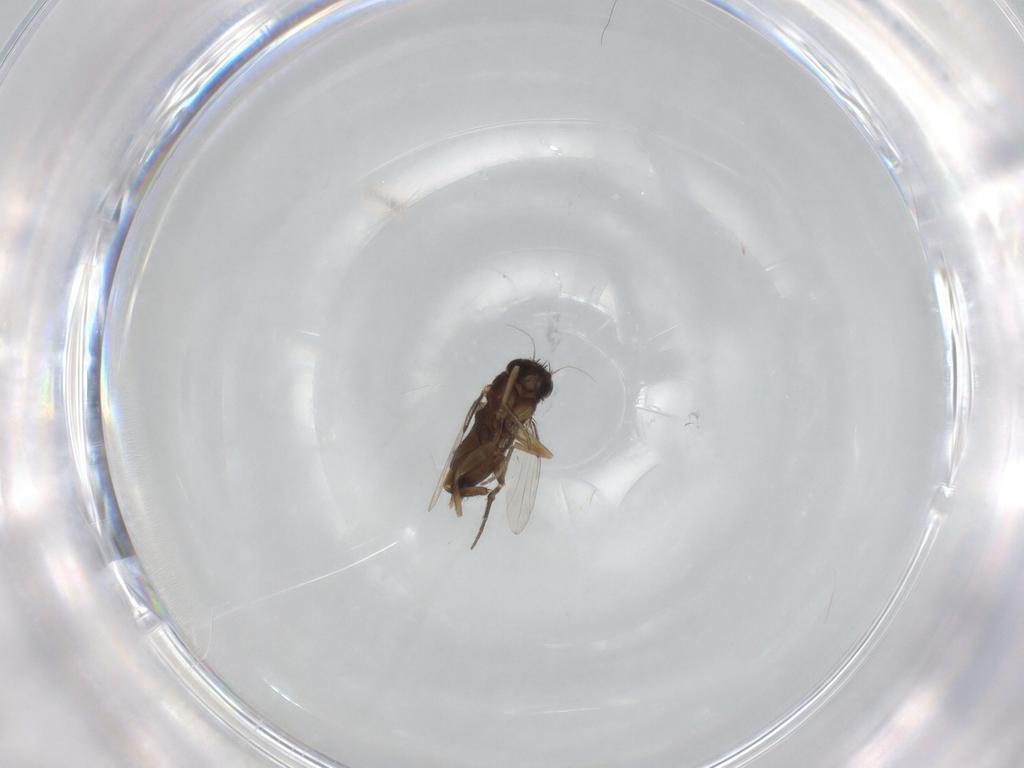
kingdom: Animalia
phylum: Arthropoda
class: Insecta
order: Diptera
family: Phoridae
